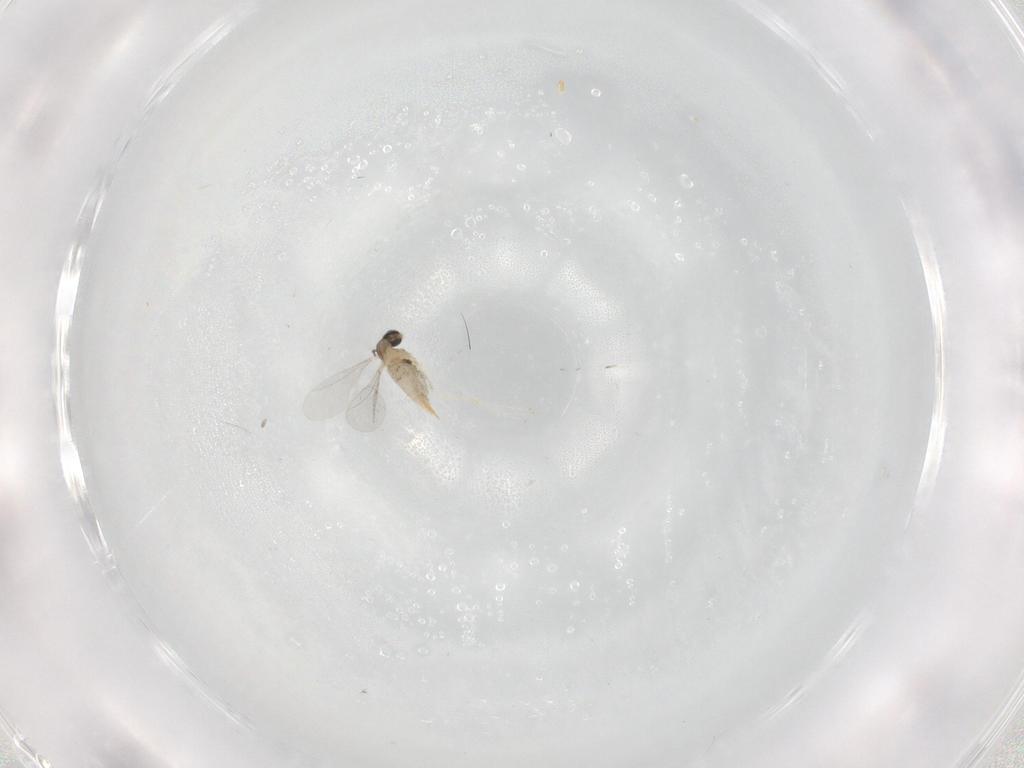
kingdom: Animalia
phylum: Arthropoda
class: Insecta
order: Diptera
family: Cecidomyiidae
